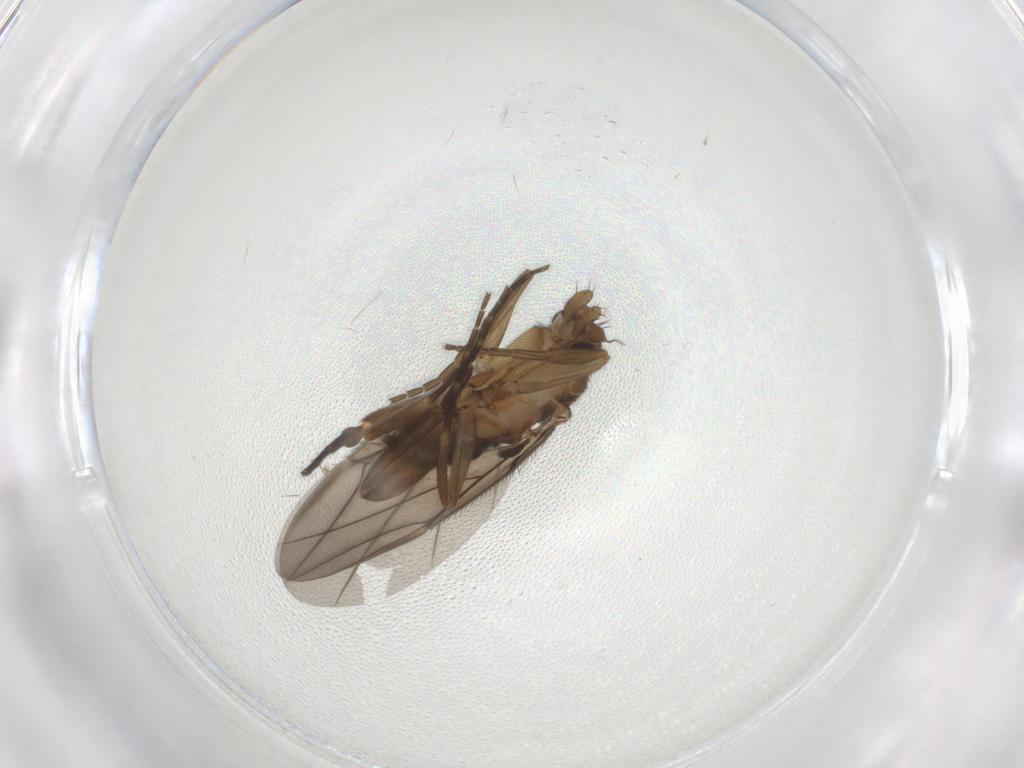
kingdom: Animalia
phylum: Arthropoda
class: Insecta
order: Diptera
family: Phoridae
